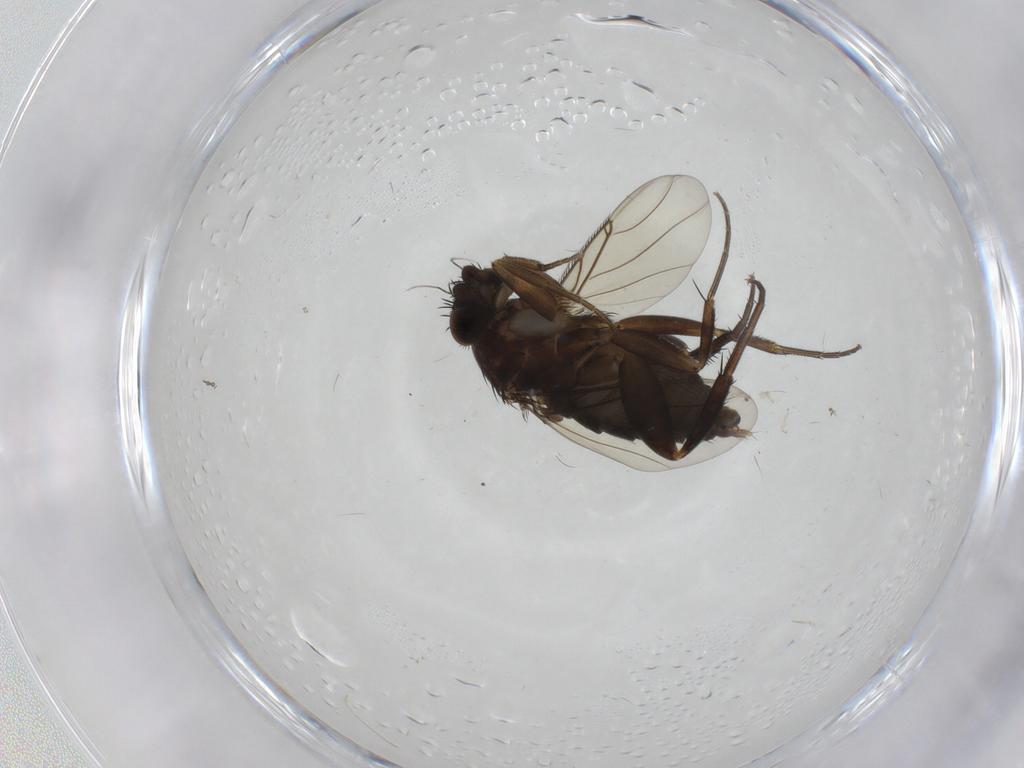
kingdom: Animalia
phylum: Arthropoda
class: Insecta
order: Diptera
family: Phoridae
